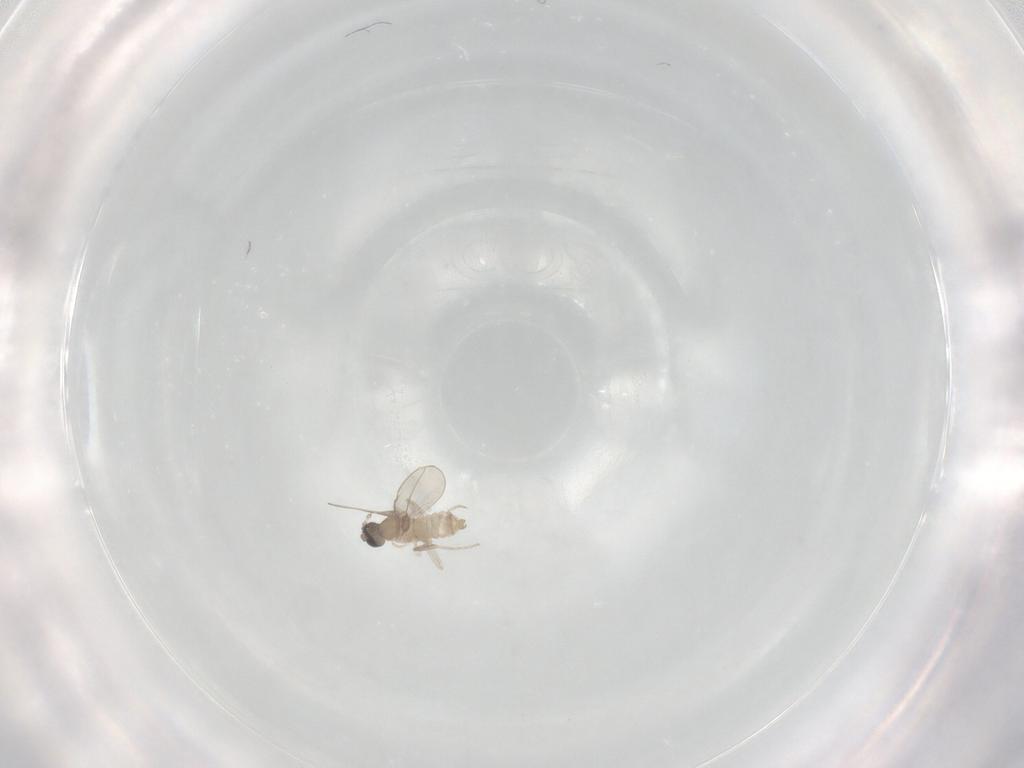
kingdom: Animalia
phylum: Arthropoda
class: Insecta
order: Diptera
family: Cecidomyiidae
